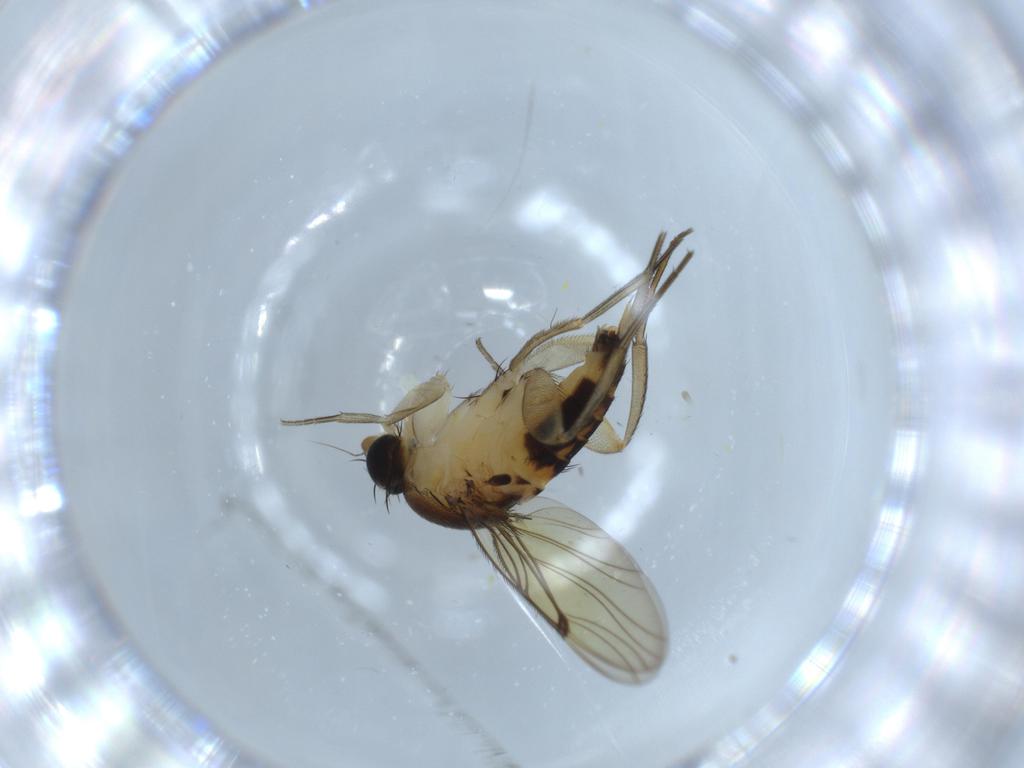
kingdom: Animalia
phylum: Arthropoda
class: Insecta
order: Diptera
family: Phoridae
